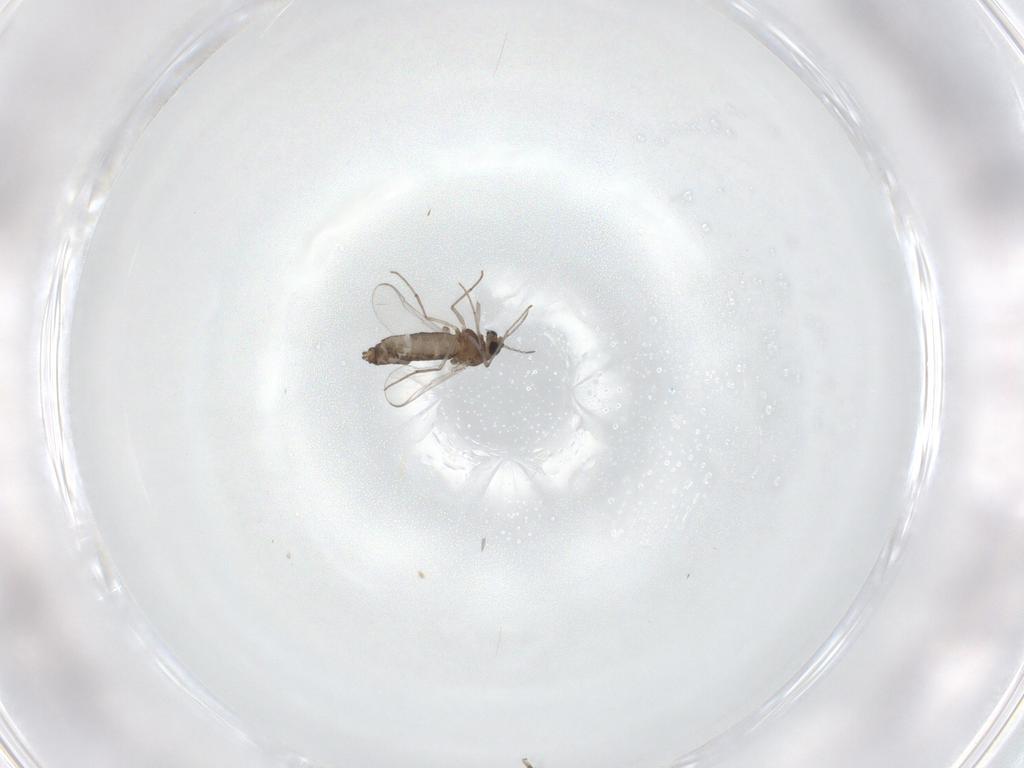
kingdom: Animalia
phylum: Arthropoda
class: Insecta
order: Diptera
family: Chironomidae
